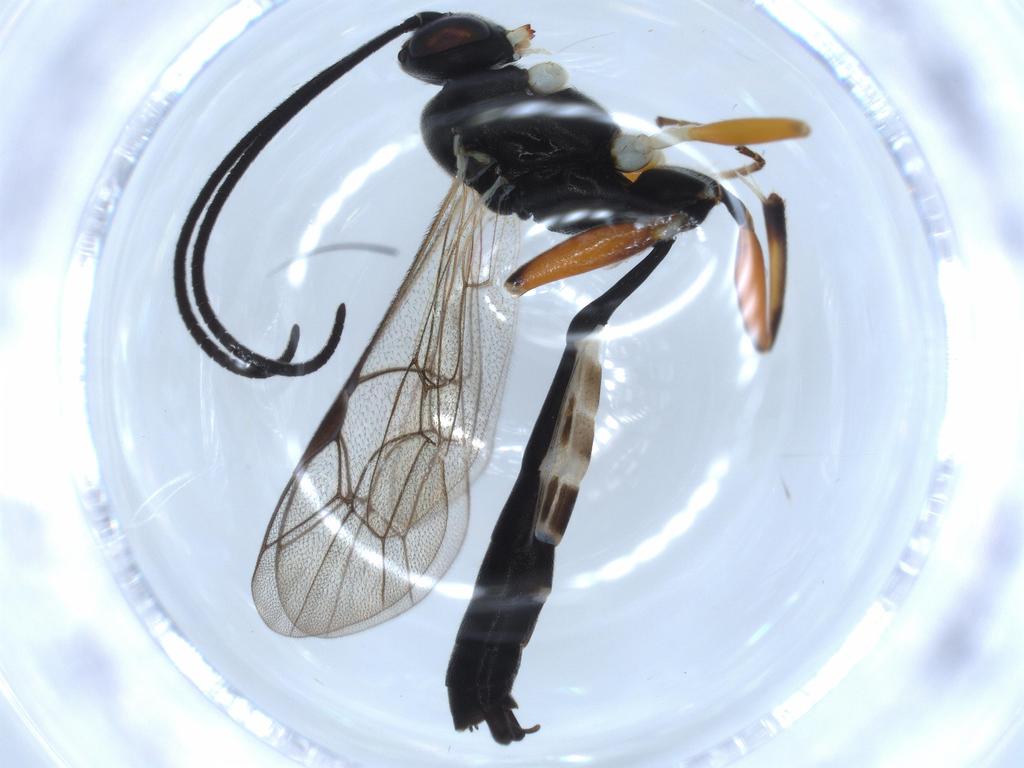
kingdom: Animalia
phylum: Arthropoda
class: Insecta
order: Hymenoptera
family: Ichneumonidae
